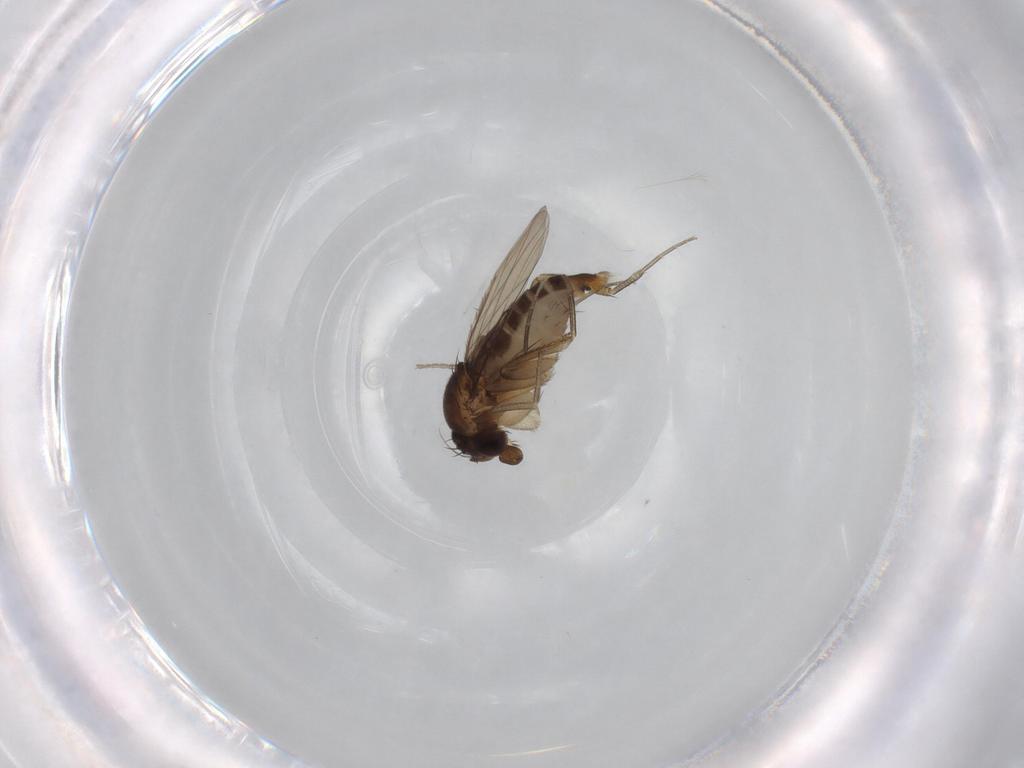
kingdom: Animalia
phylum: Arthropoda
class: Insecta
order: Diptera
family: Phoridae
